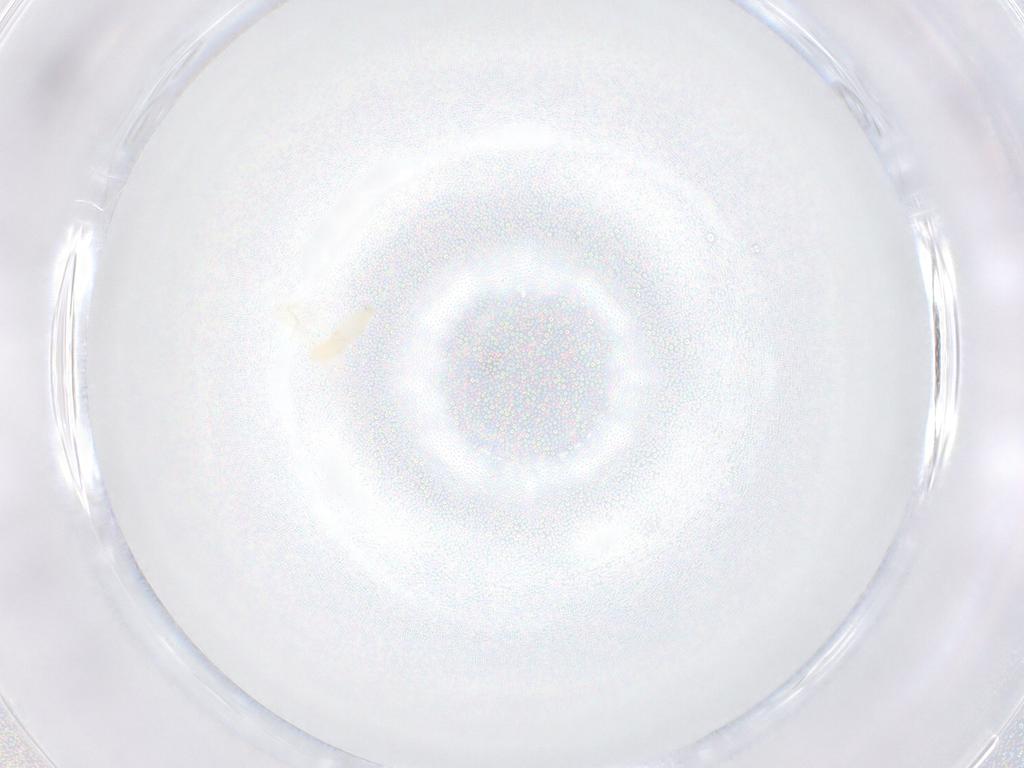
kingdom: Animalia
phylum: Arthropoda
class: Insecta
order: Diptera
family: Cecidomyiidae
